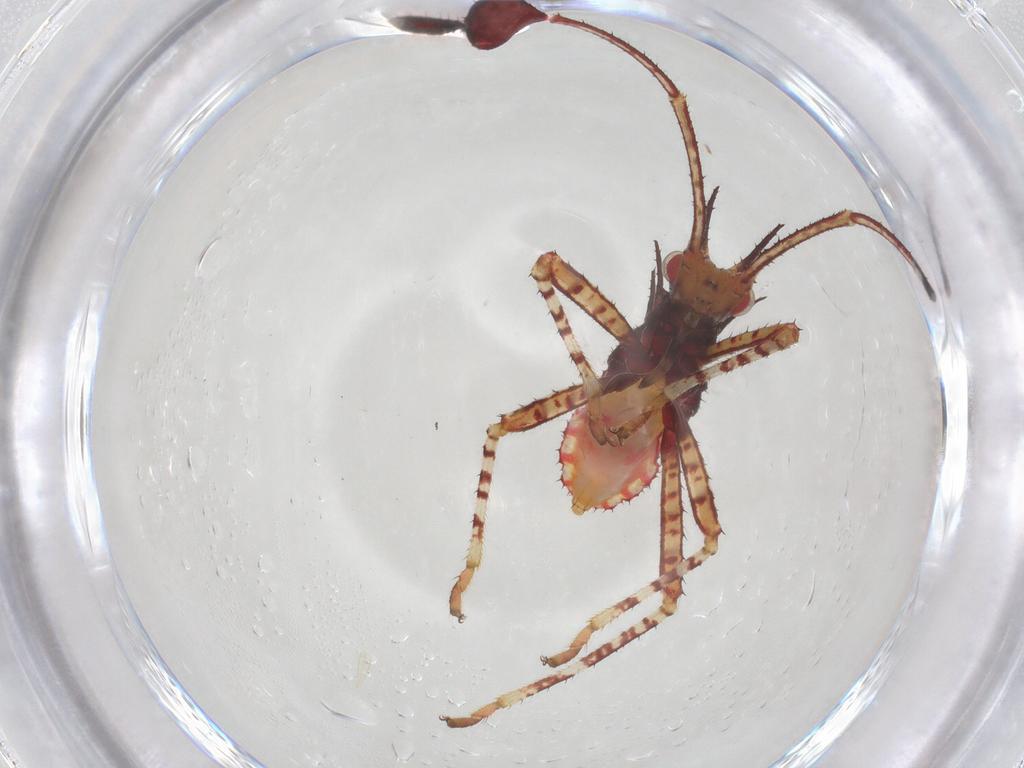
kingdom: Animalia
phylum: Arthropoda
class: Insecta
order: Hemiptera
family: Coreidae
